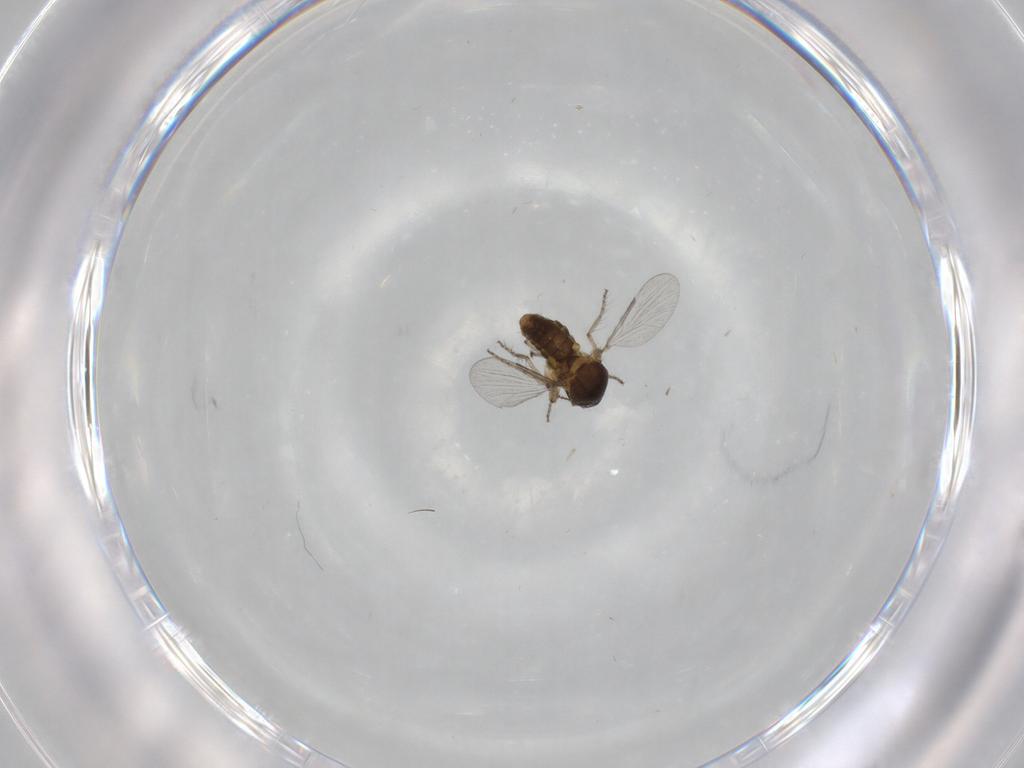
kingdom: Animalia
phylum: Arthropoda
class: Insecta
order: Diptera
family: Ceratopogonidae
